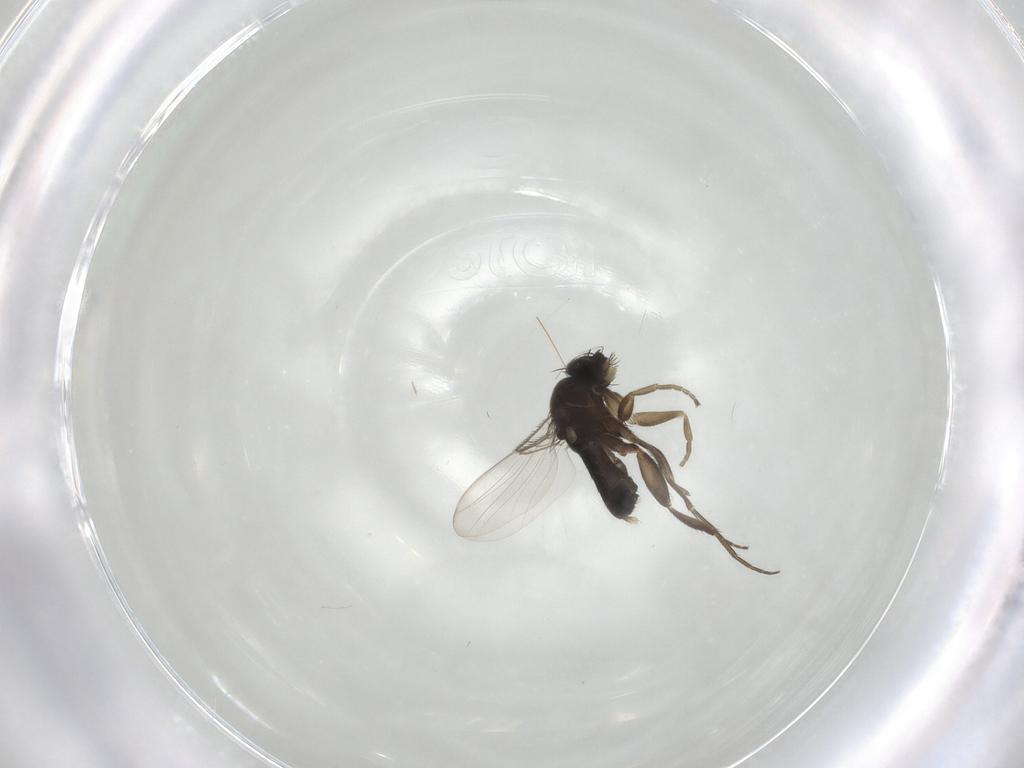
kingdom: Animalia
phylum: Arthropoda
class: Insecta
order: Diptera
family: Phoridae
